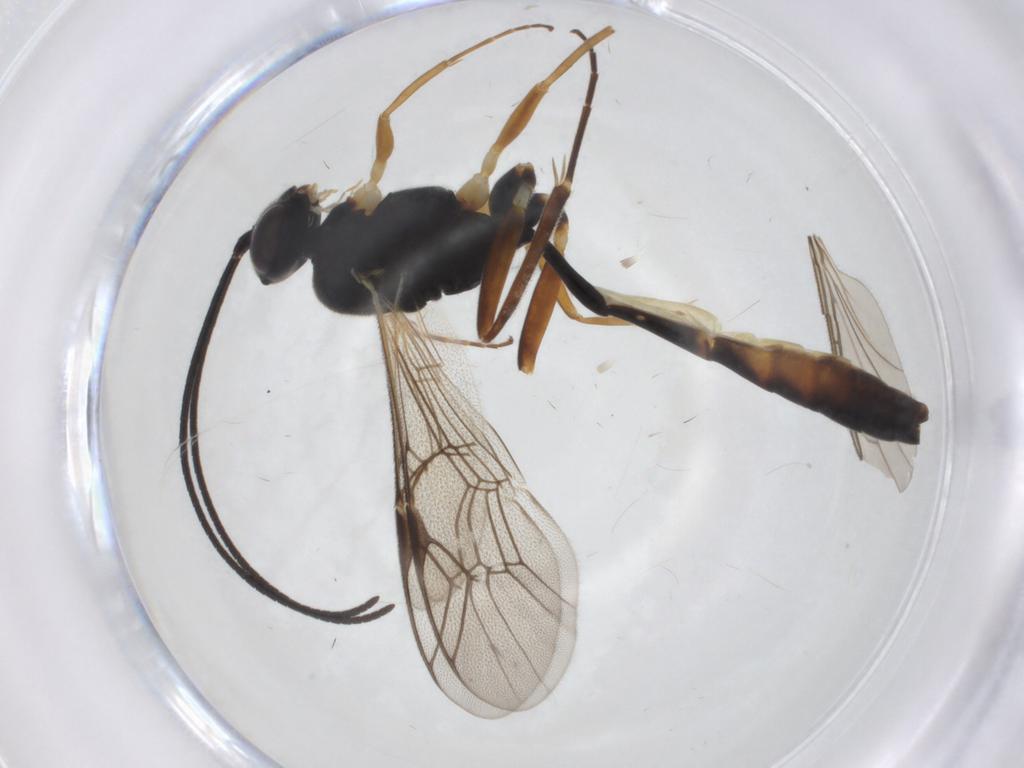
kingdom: Animalia
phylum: Arthropoda
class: Insecta
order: Hymenoptera
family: Ichneumonidae
